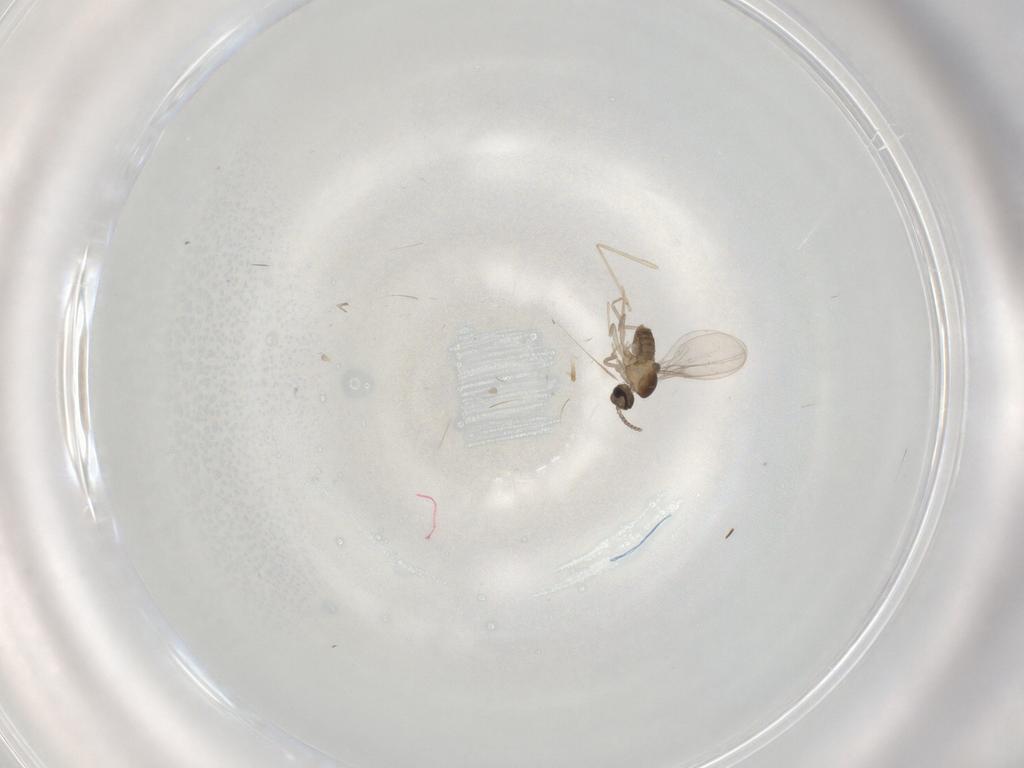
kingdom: Animalia
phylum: Arthropoda
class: Insecta
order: Diptera
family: Cecidomyiidae
